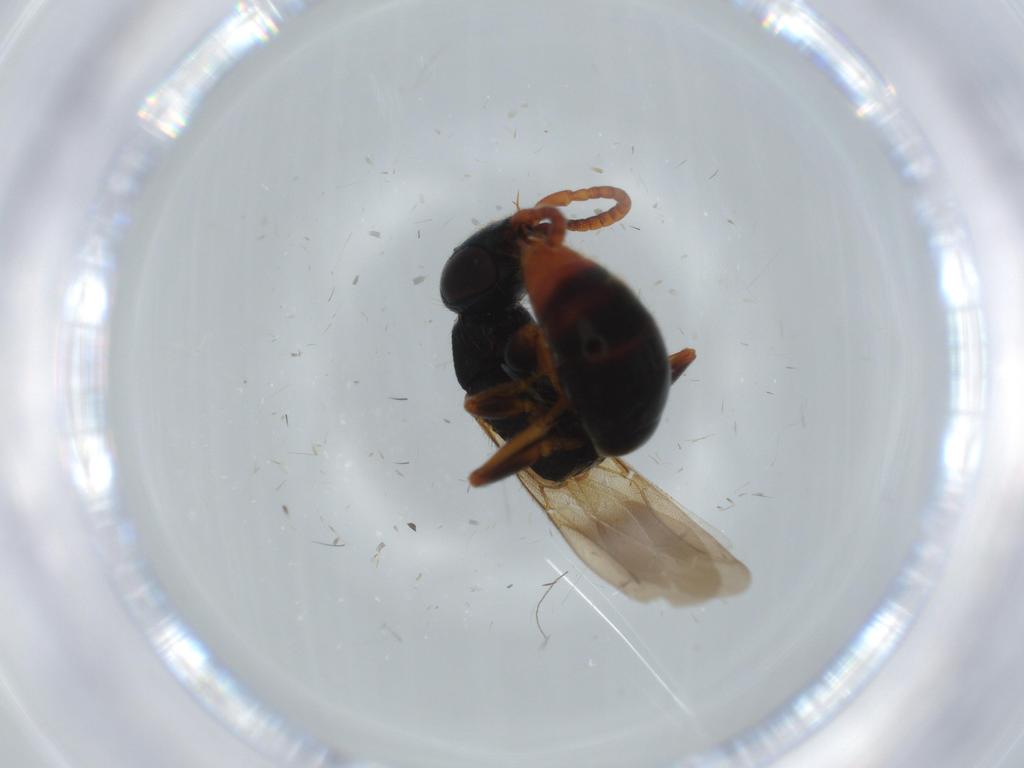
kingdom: Animalia
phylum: Arthropoda
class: Insecta
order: Hymenoptera
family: Bethylidae
